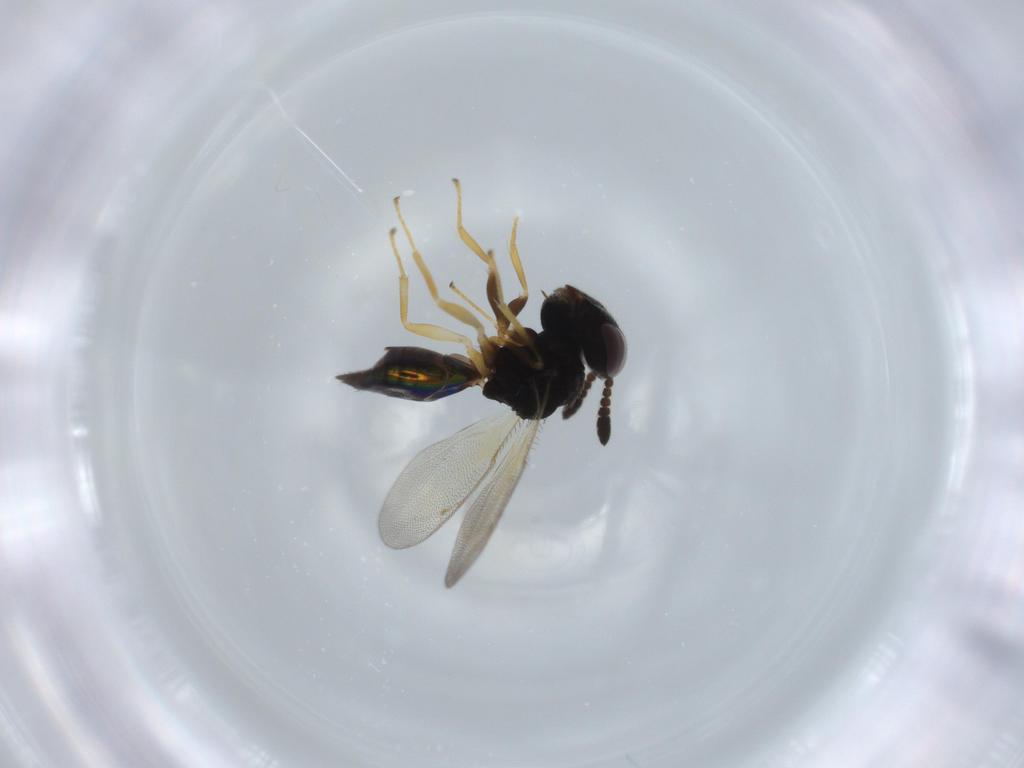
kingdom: Animalia
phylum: Arthropoda
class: Insecta
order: Hymenoptera
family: Pteromalidae
